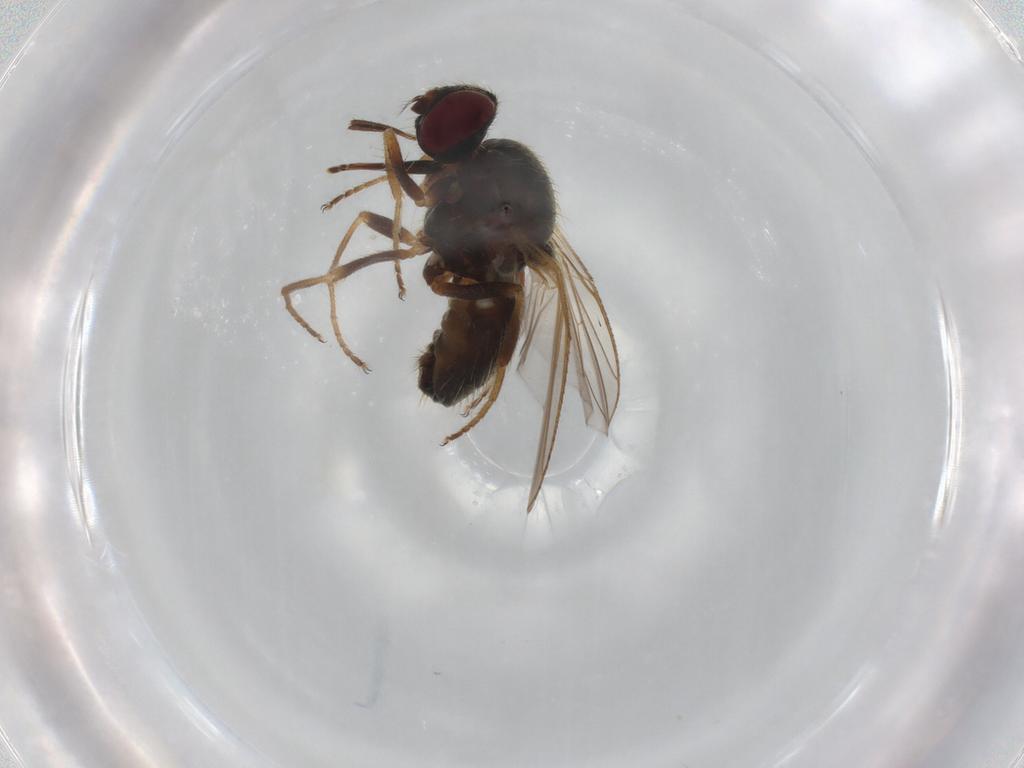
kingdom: Animalia
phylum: Arthropoda
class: Insecta
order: Diptera
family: Muscidae
